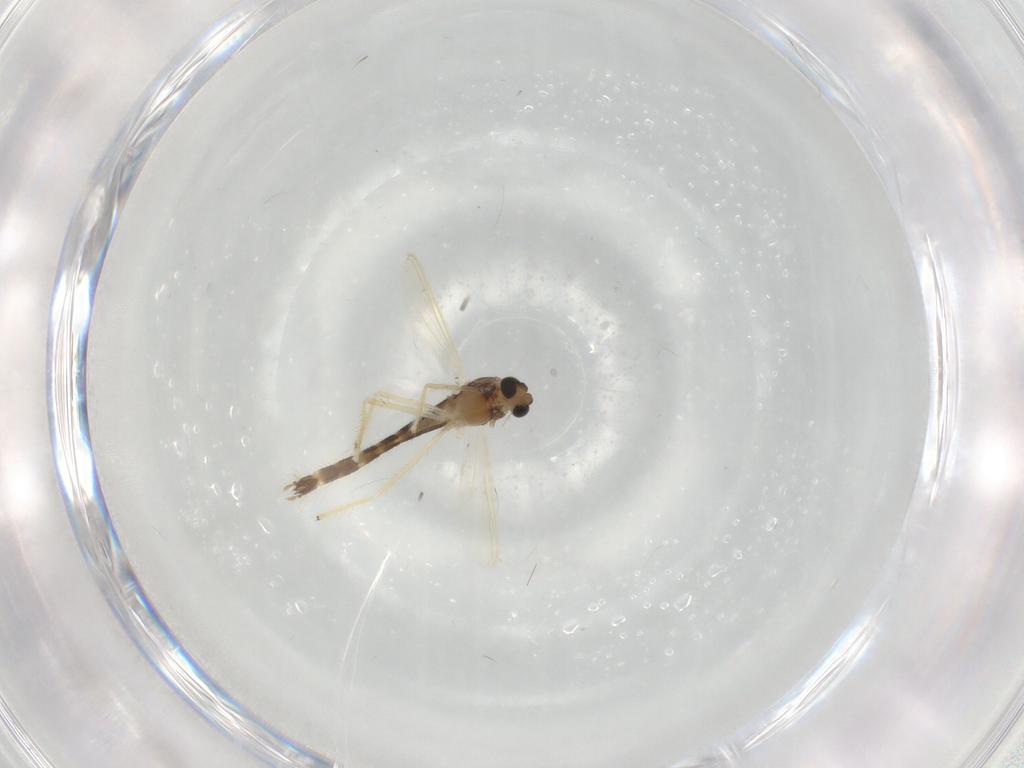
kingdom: Animalia
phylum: Arthropoda
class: Insecta
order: Diptera
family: Chironomidae
